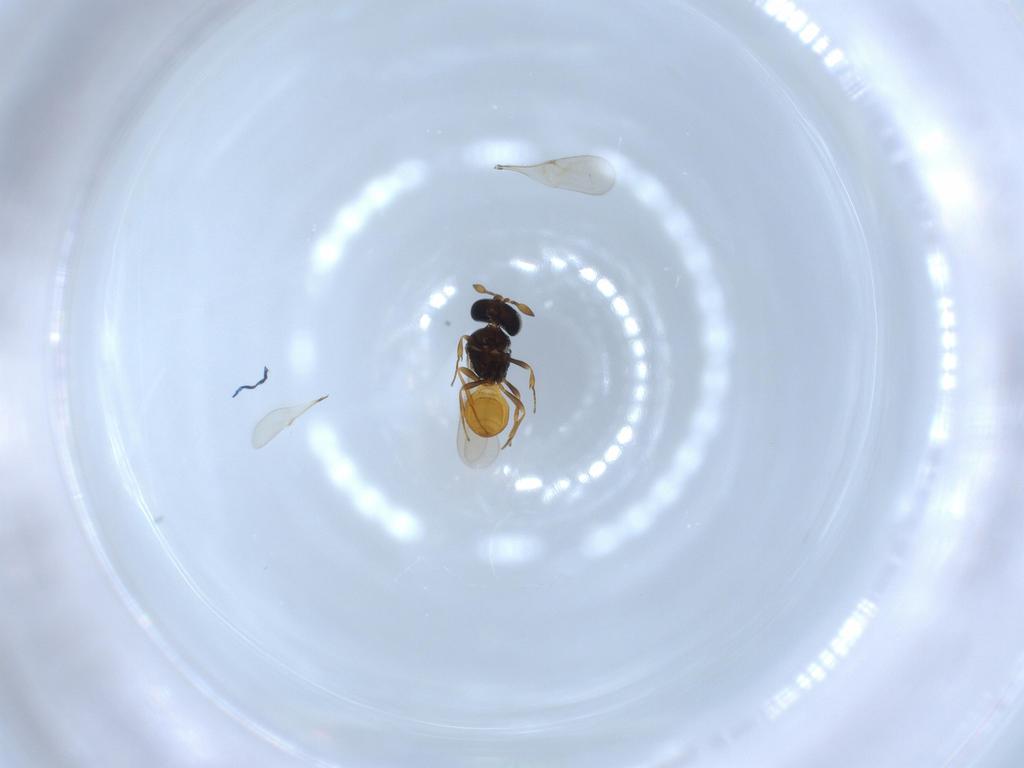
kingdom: Animalia
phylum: Arthropoda
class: Insecta
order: Hymenoptera
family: Scelionidae
